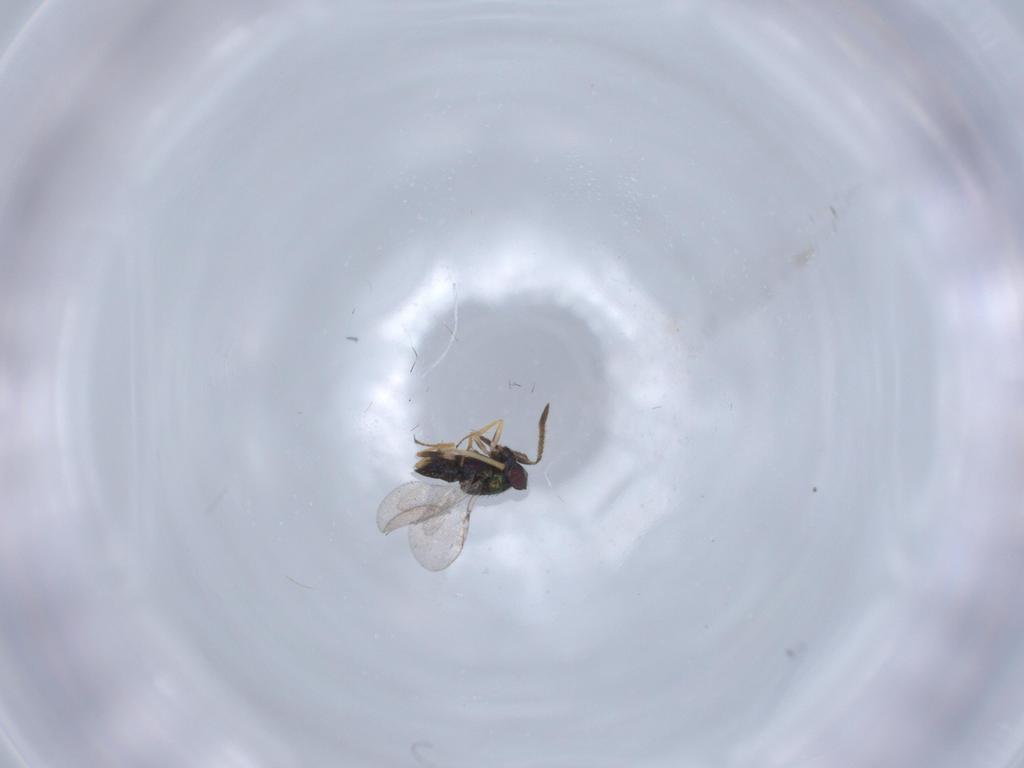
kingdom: Animalia
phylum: Arthropoda
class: Insecta
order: Hymenoptera
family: Encyrtidae
